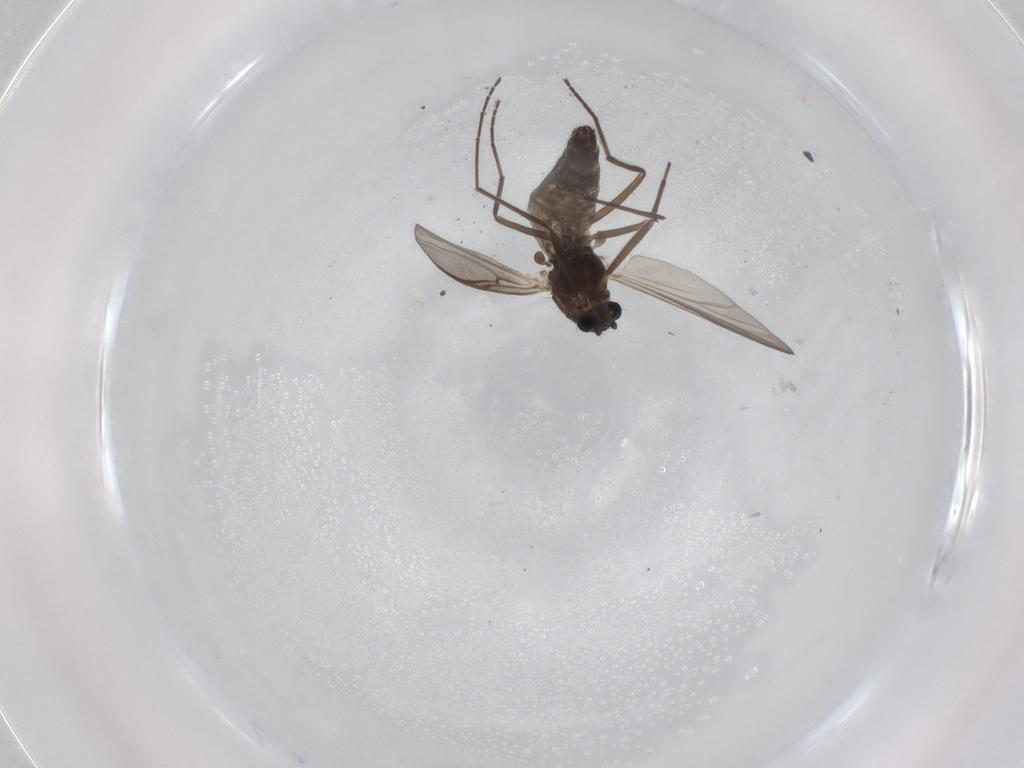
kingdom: Animalia
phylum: Arthropoda
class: Insecta
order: Diptera
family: Chironomidae
